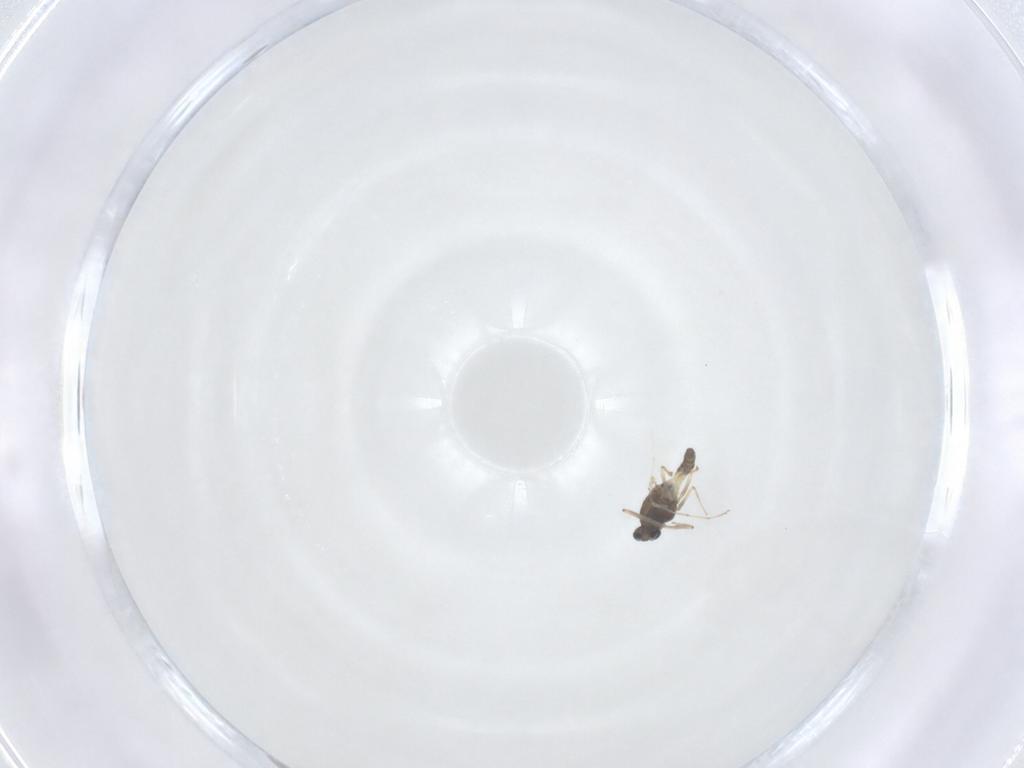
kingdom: Animalia
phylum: Arthropoda
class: Insecta
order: Diptera
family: Chironomidae
